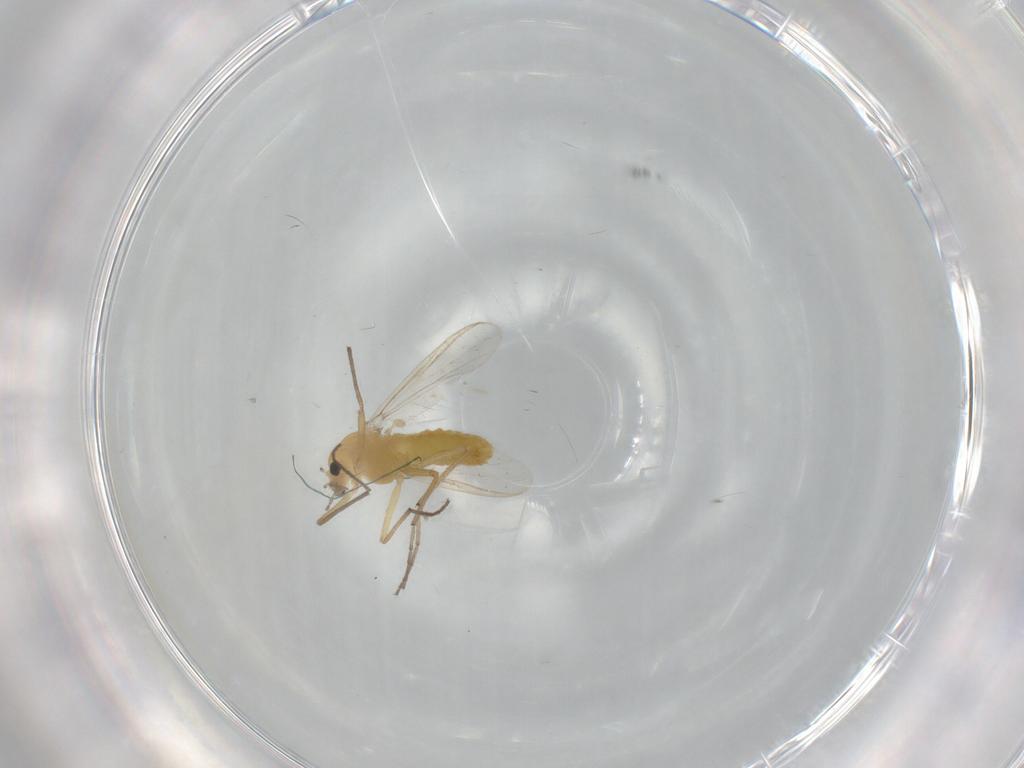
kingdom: Animalia
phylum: Arthropoda
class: Insecta
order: Diptera
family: Chironomidae
